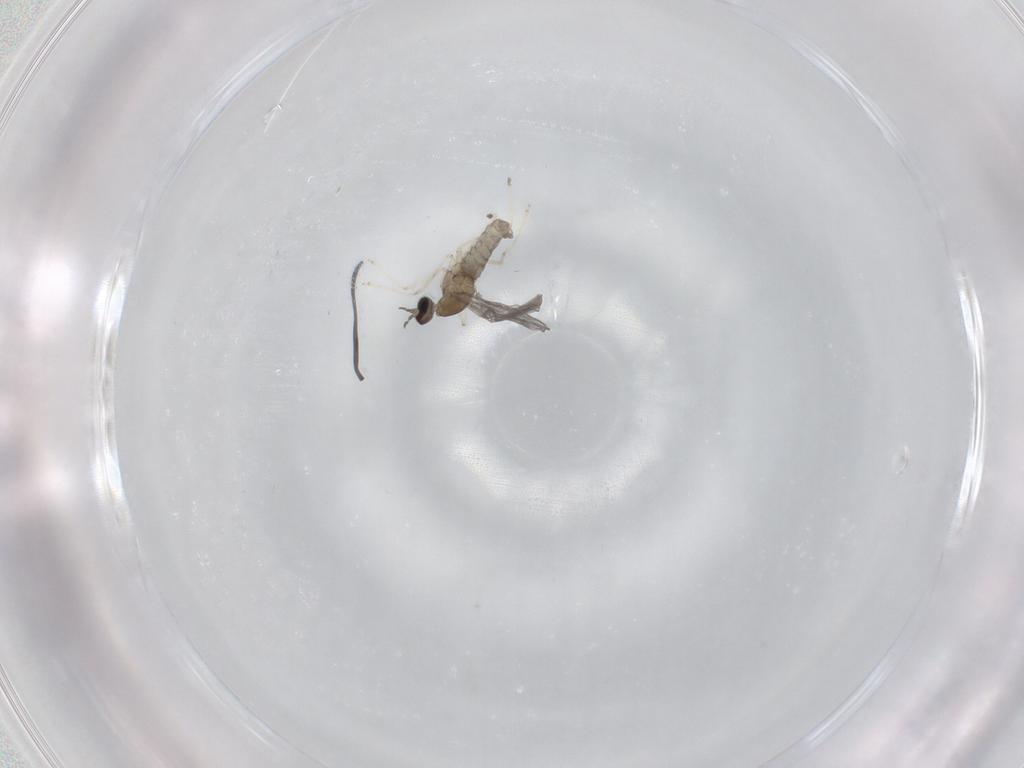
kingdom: Animalia
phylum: Arthropoda
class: Insecta
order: Diptera
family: Cecidomyiidae
